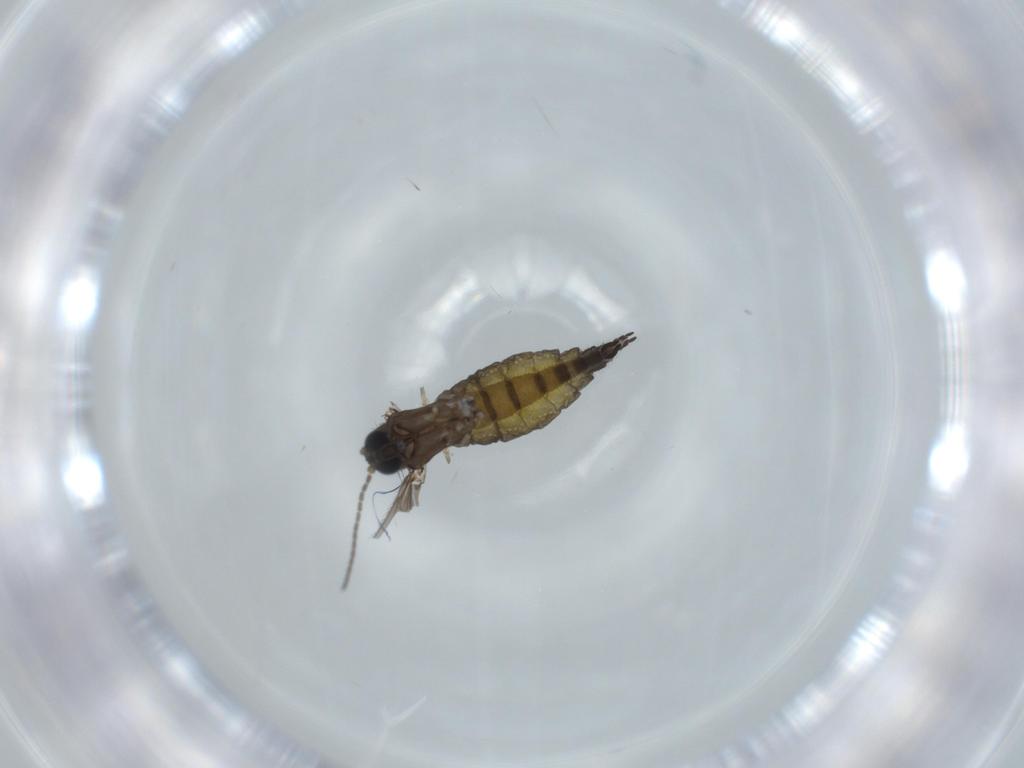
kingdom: Animalia
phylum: Arthropoda
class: Insecta
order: Diptera
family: Sciaridae
